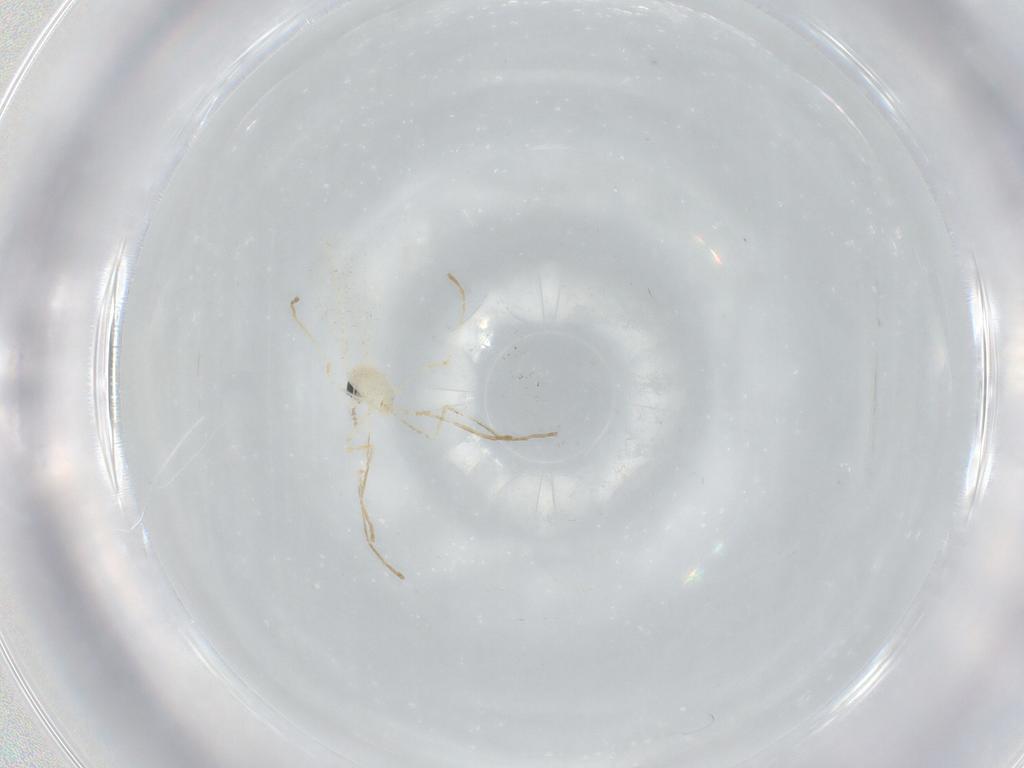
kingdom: Animalia
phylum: Arthropoda
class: Insecta
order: Diptera
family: Cecidomyiidae
